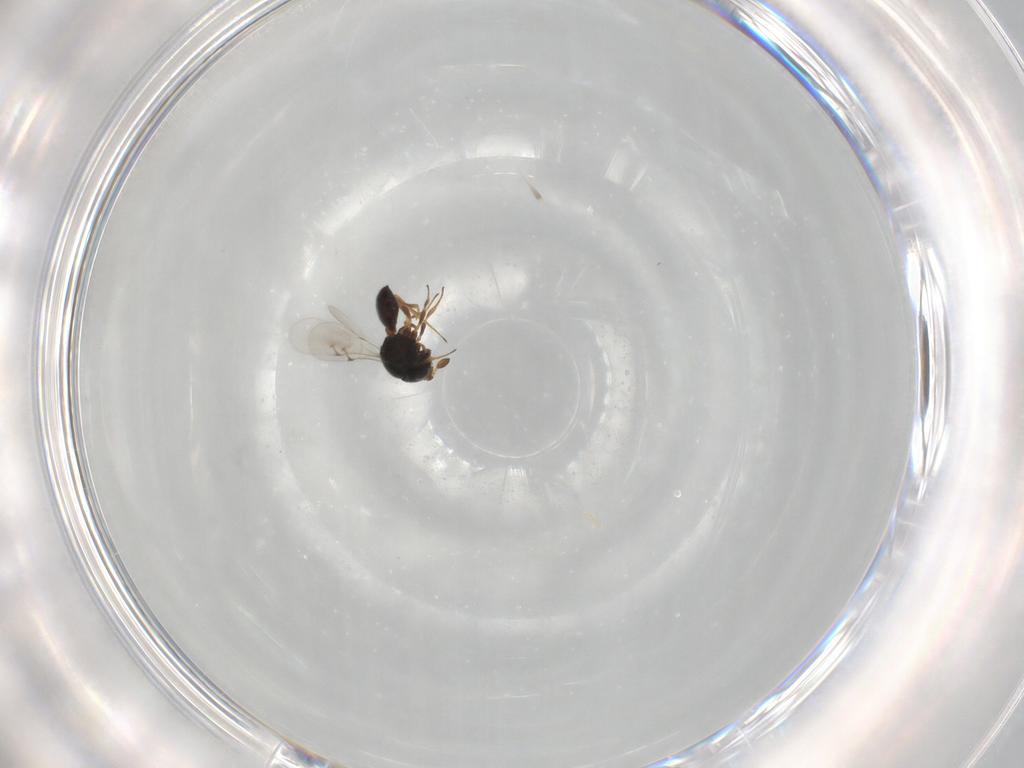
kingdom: Animalia
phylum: Arthropoda
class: Insecta
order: Hymenoptera
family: Scelionidae
